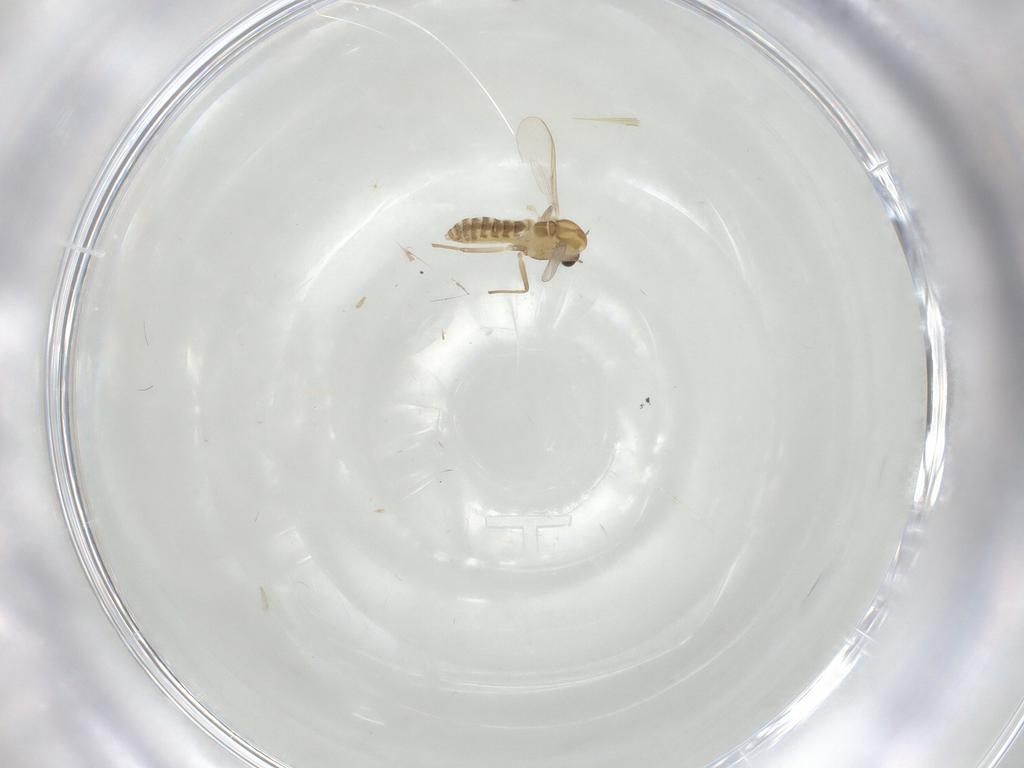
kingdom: Animalia
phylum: Arthropoda
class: Insecta
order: Diptera
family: Chironomidae
